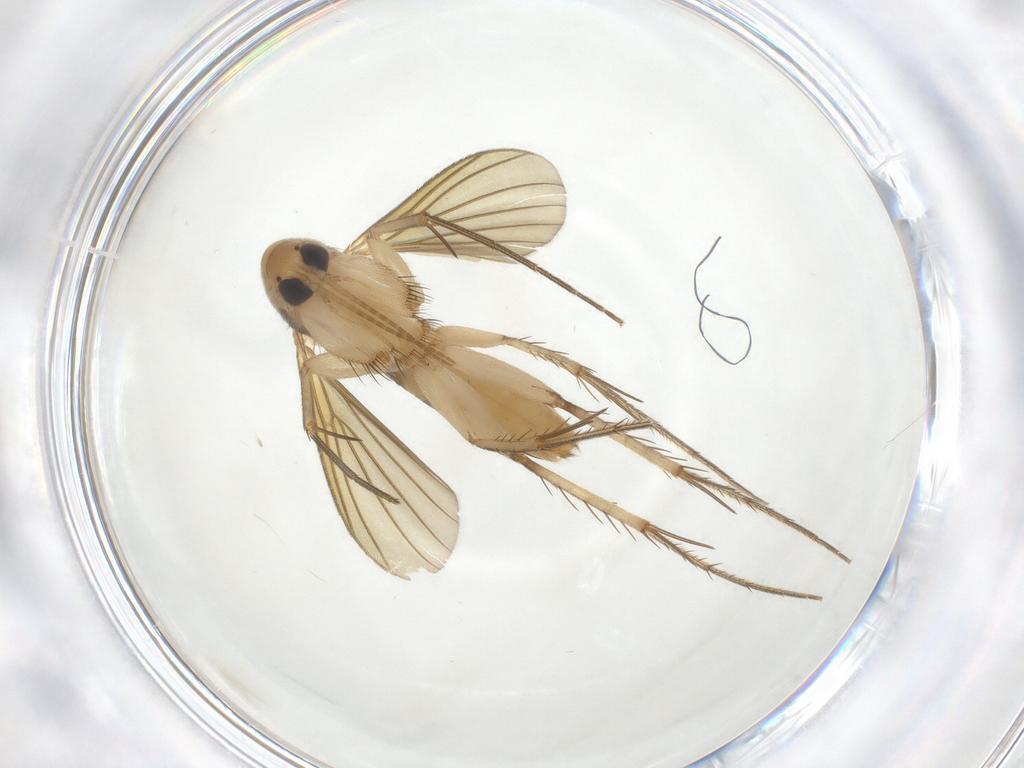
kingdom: Animalia
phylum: Arthropoda
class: Insecta
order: Diptera
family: Mycetophilidae
